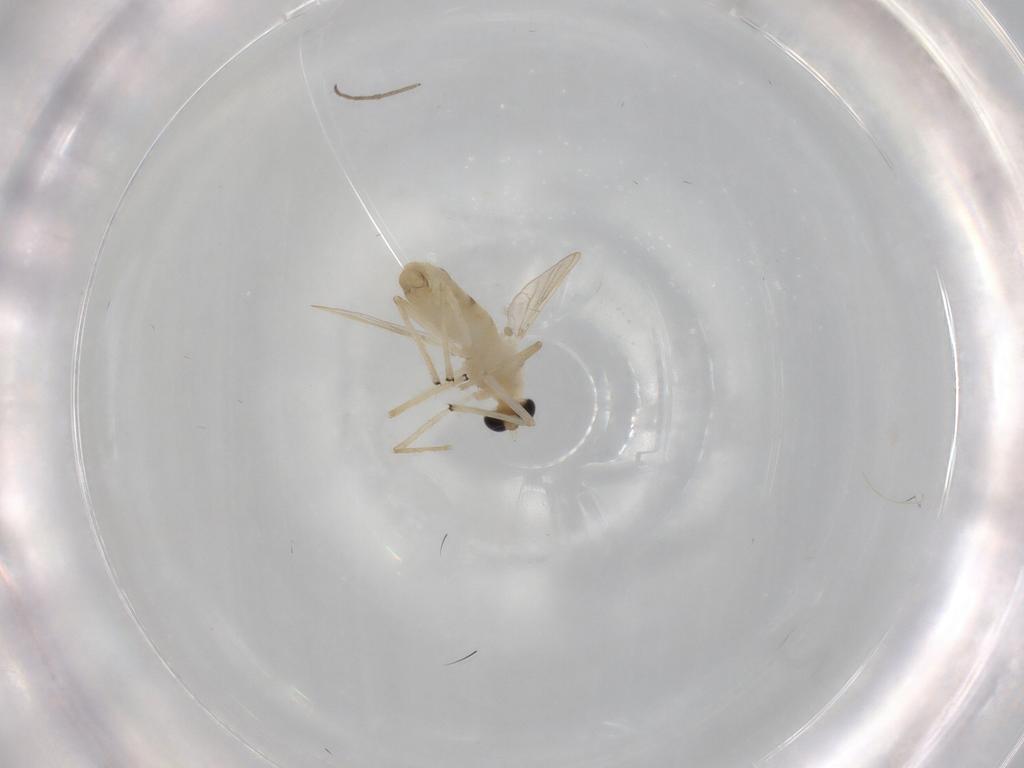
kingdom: Animalia
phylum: Arthropoda
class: Insecta
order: Diptera
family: Chironomidae
